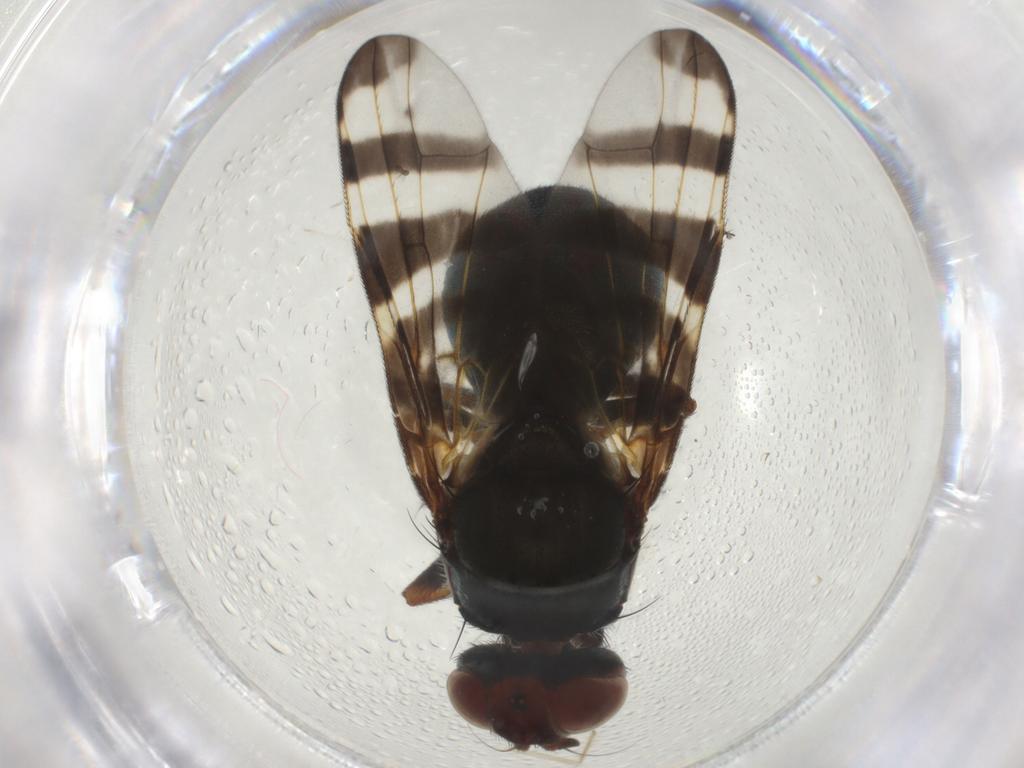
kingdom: Animalia
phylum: Arthropoda
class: Insecta
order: Diptera
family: Platystomatidae
